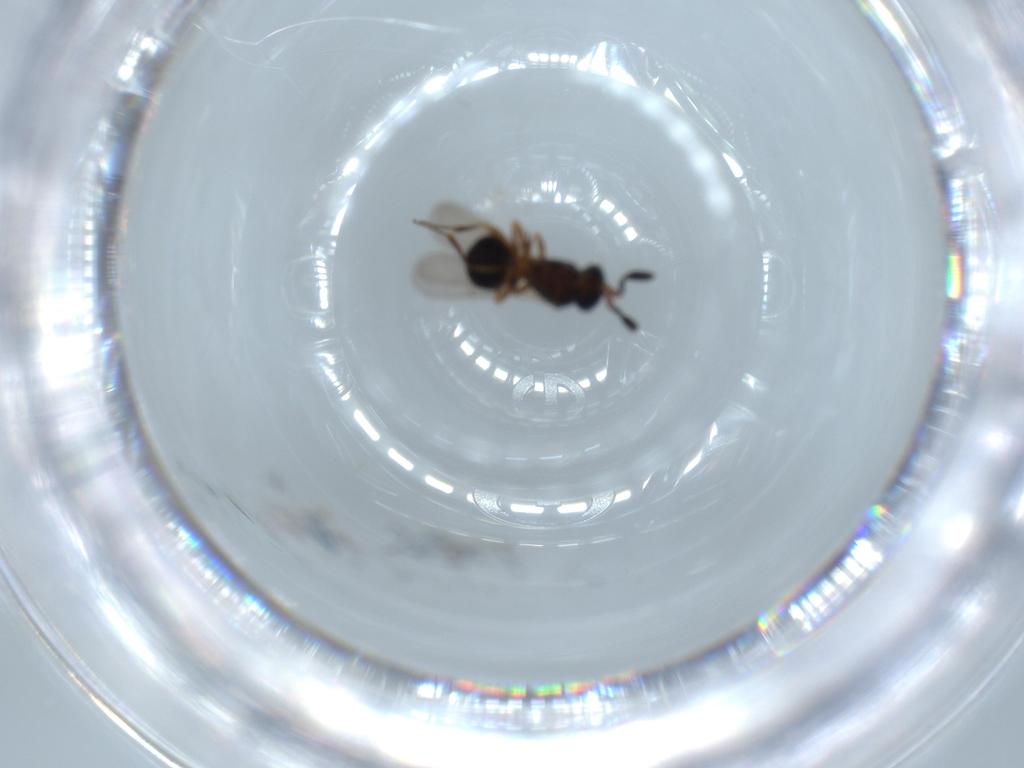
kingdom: Animalia
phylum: Arthropoda
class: Insecta
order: Hymenoptera
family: Scelionidae
